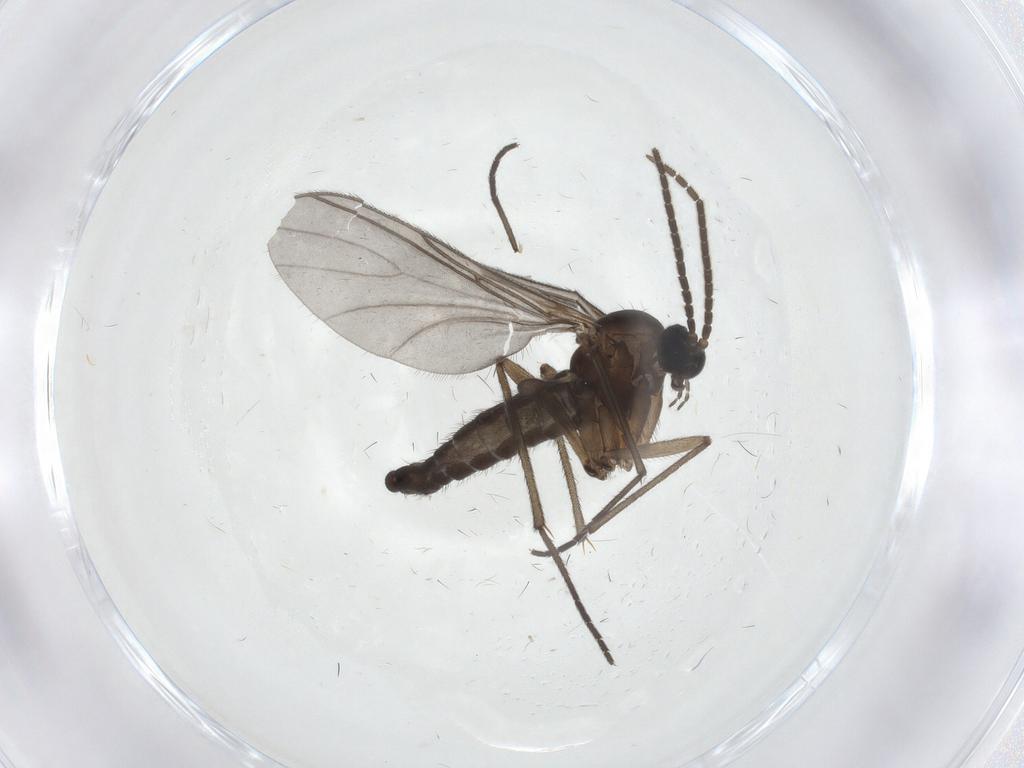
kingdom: Animalia
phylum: Arthropoda
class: Insecta
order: Diptera
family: Sciaridae
